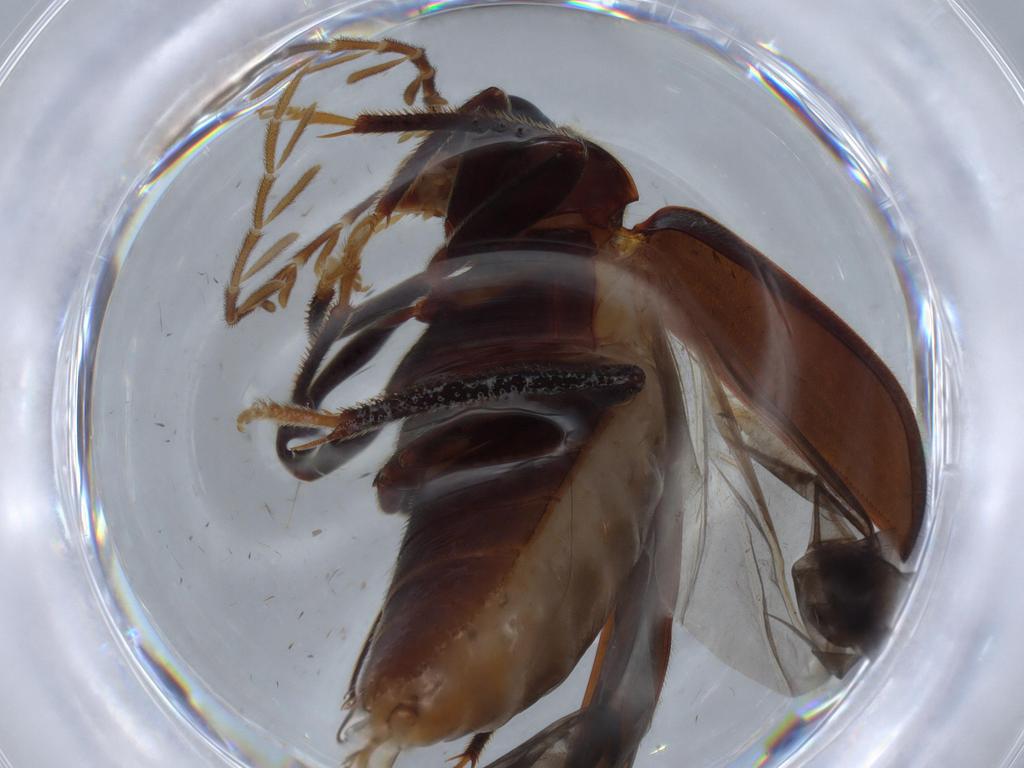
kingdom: Animalia
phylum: Arthropoda
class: Insecta
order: Coleoptera
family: Ptilodactylidae
